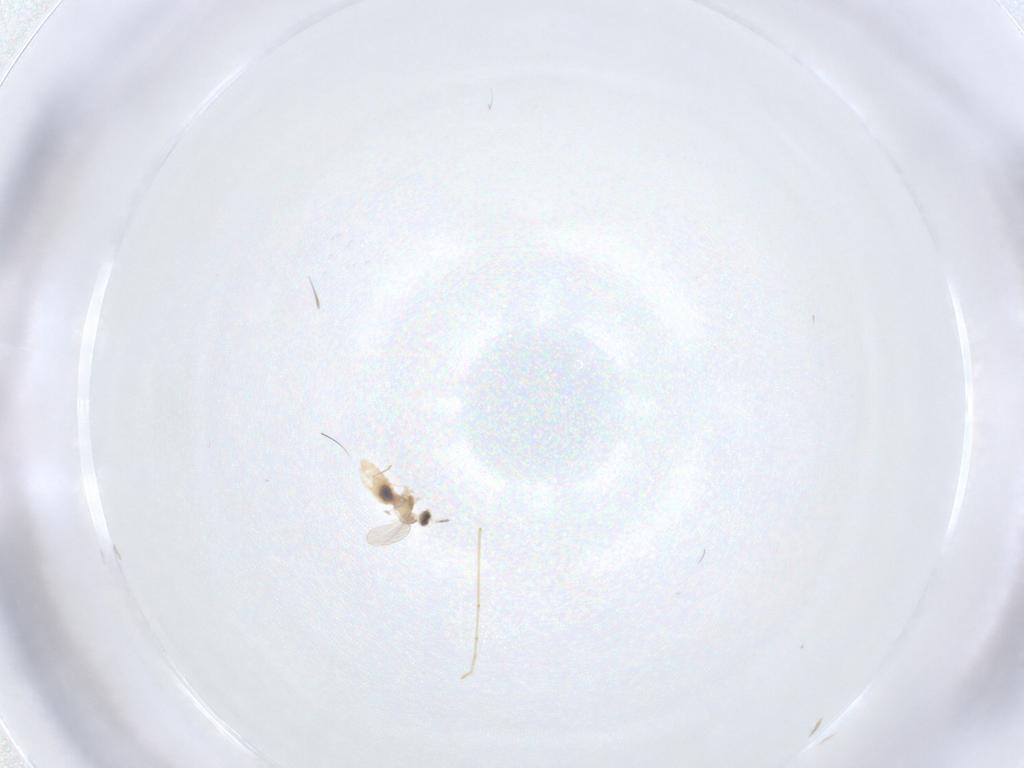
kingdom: Animalia
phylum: Arthropoda
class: Insecta
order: Diptera
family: Psychodidae
